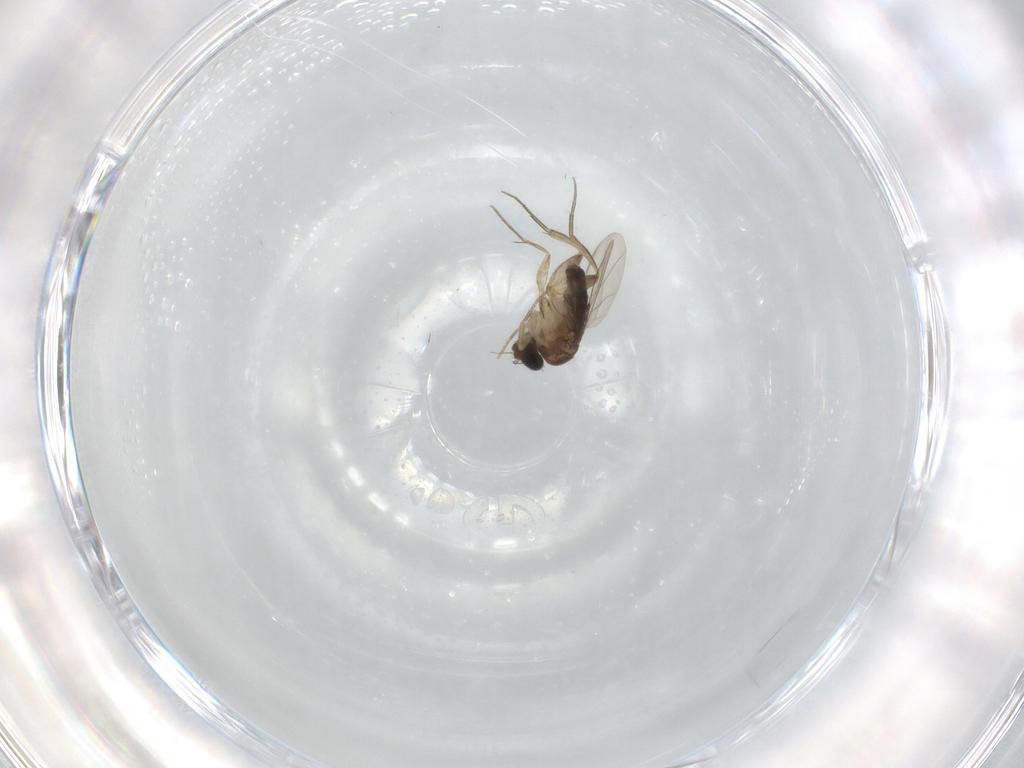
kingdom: Animalia
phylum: Arthropoda
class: Insecta
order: Diptera
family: Phoridae
